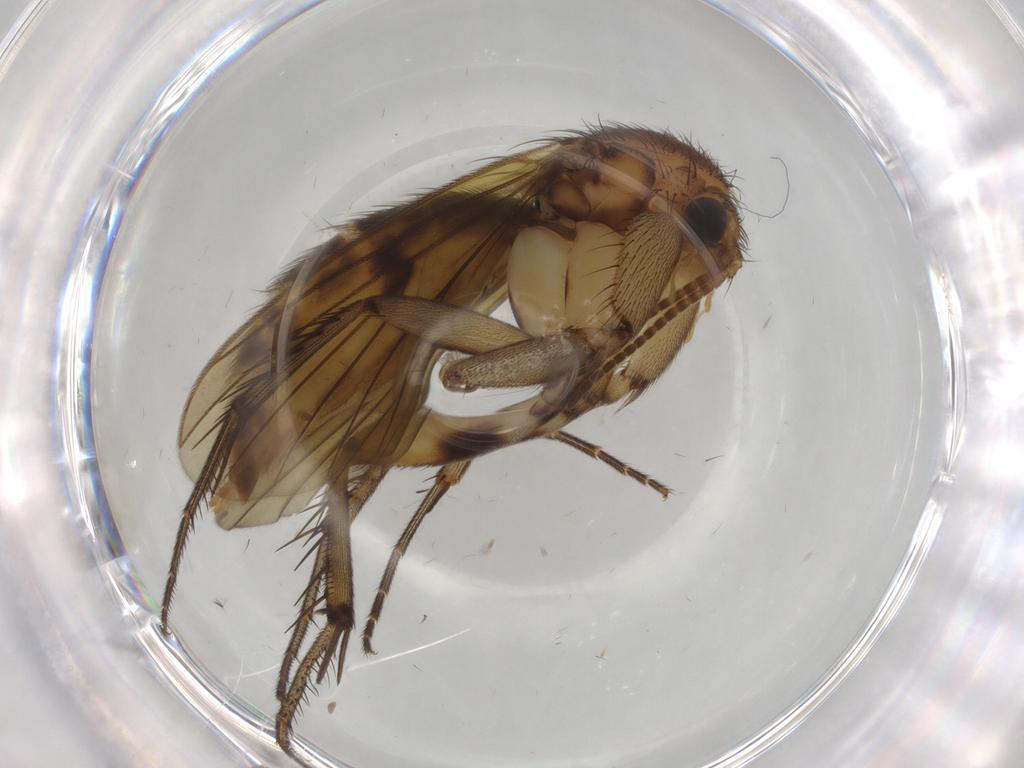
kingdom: Animalia
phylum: Arthropoda
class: Insecta
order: Diptera
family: Limoniidae
